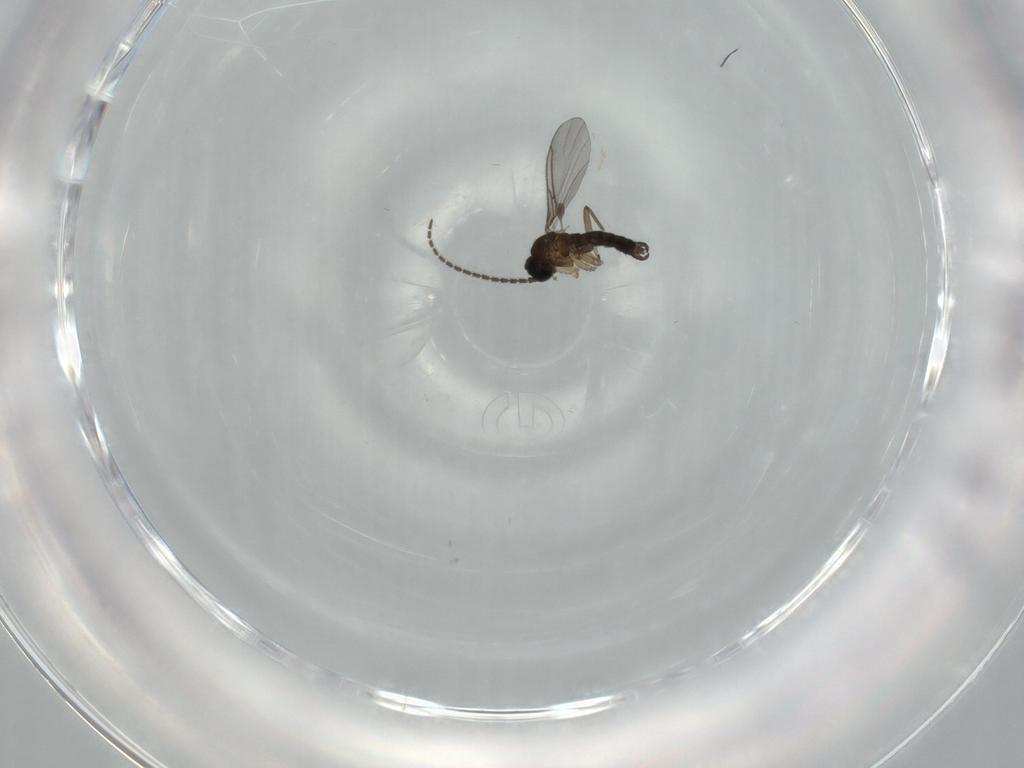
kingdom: Animalia
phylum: Arthropoda
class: Insecta
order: Diptera
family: Sciaridae
